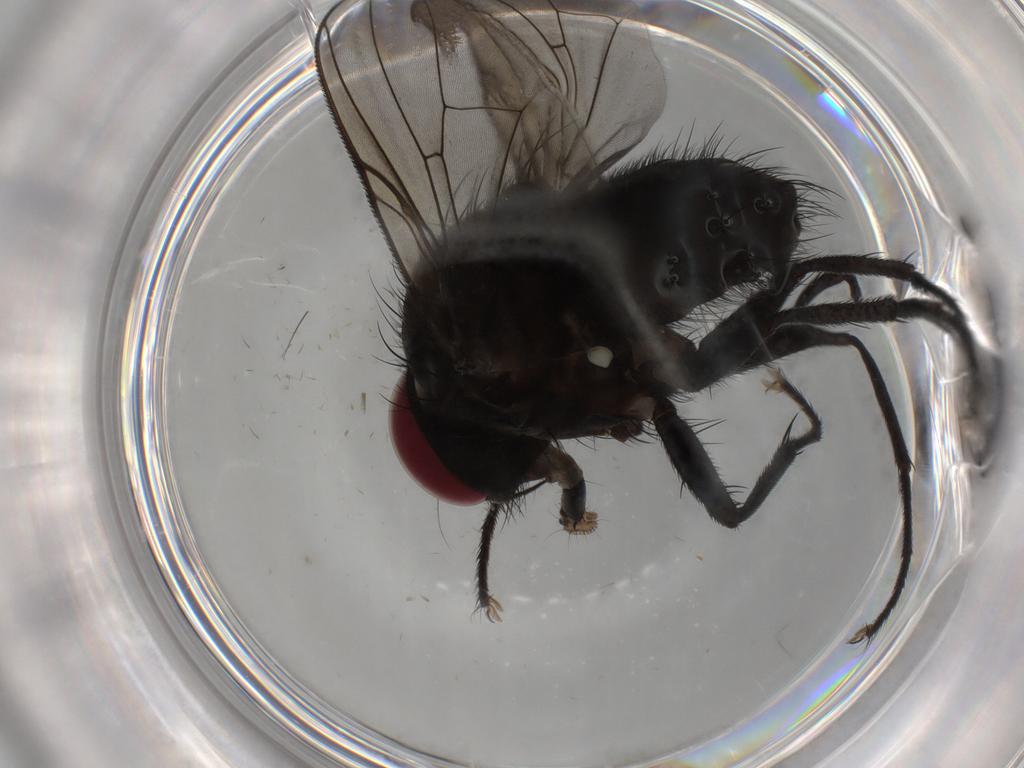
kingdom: Animalia
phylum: Arthropoda
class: Insecta
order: Diptera
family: Muscidae
